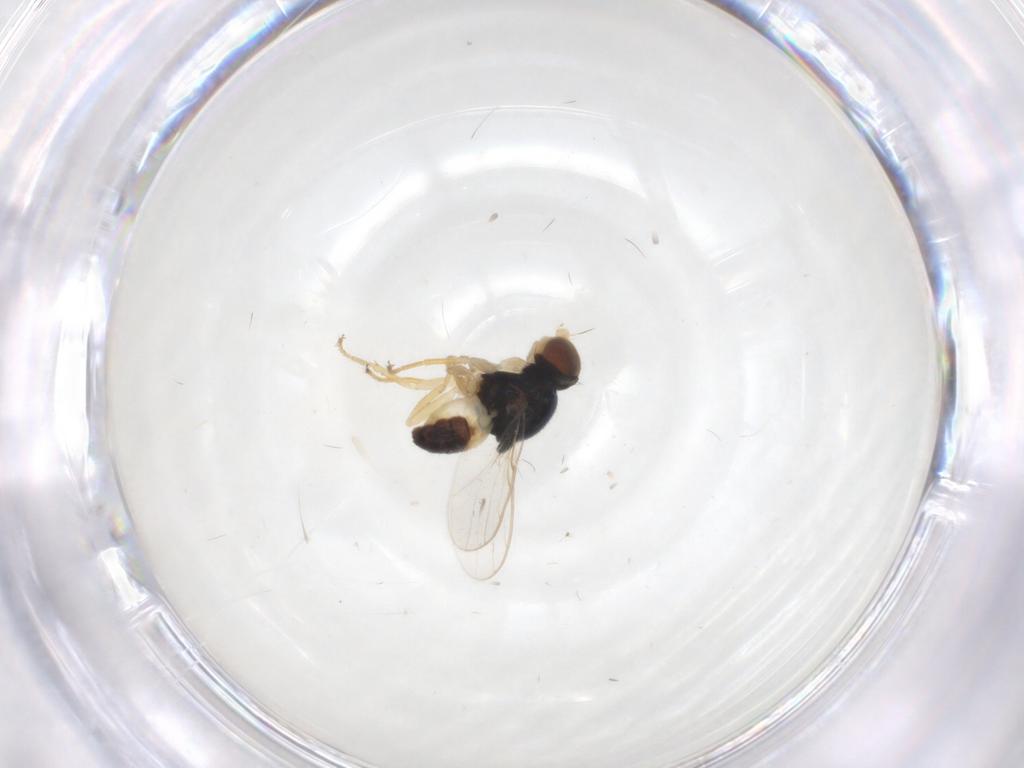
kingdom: Animalia
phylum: Arthropoda
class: Insecta
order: Diptera
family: Chloropidae
